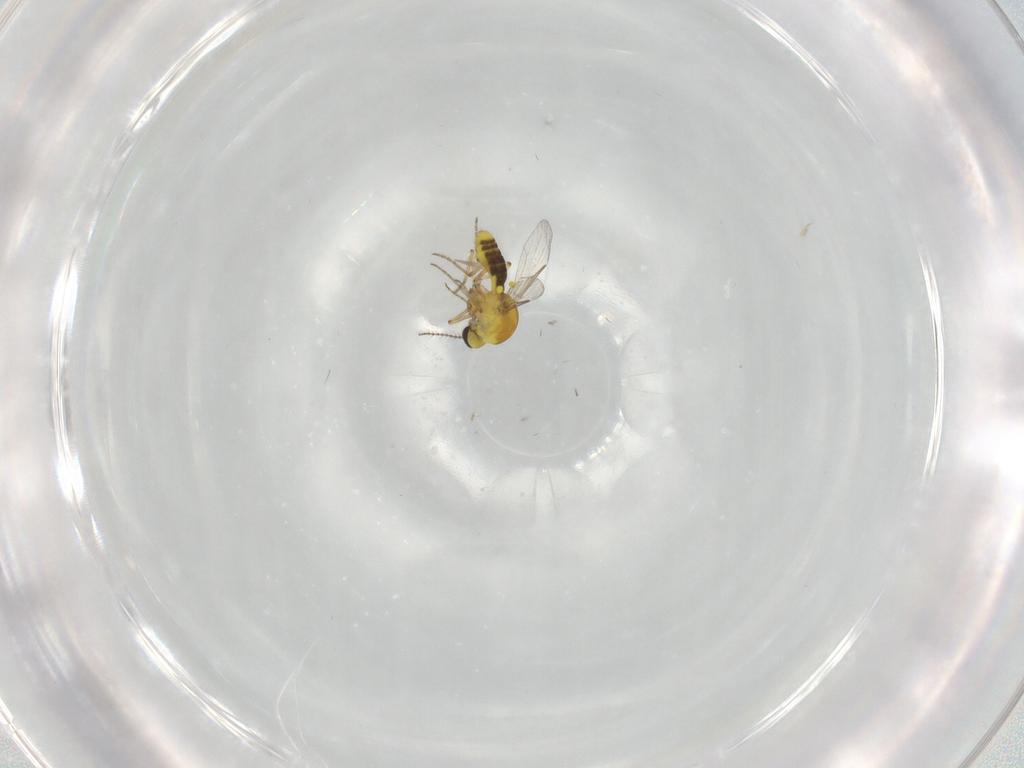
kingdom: Animalia
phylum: Arthropoda
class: Insecta
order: Diptera
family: Ceratopogonidae
